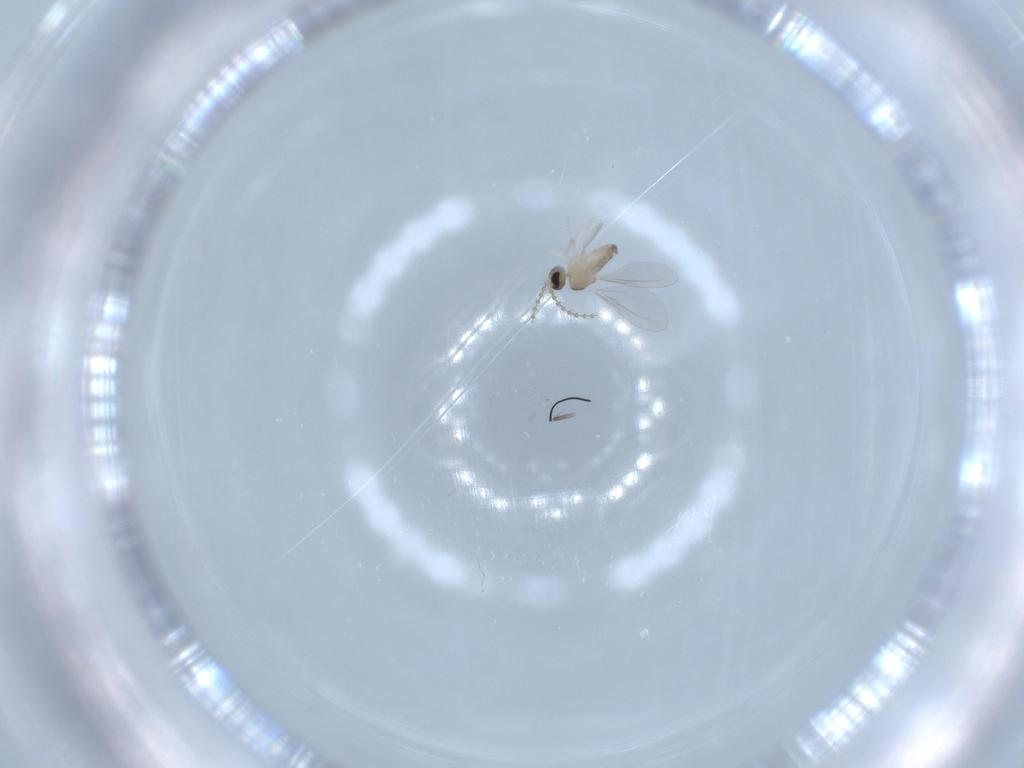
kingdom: Animalia
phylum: Arthropoda
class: Insecta
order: Diptera
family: Cecidomyiidae
